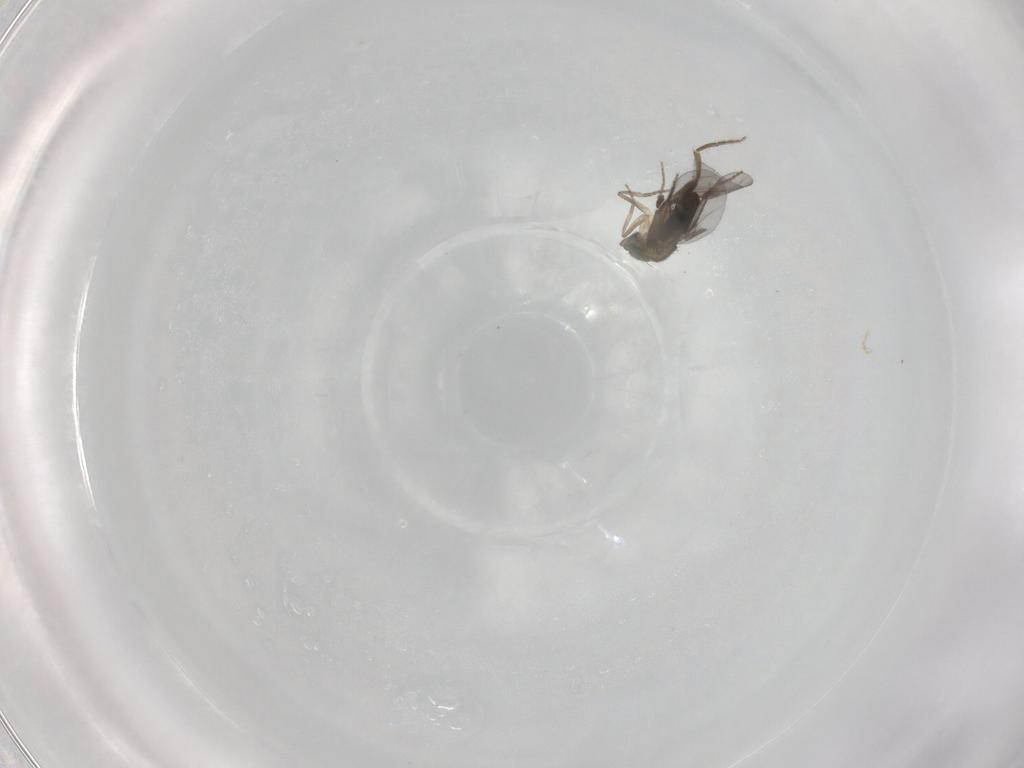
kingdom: Animalia
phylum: Arthropoda
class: Insecta
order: Diptera
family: Phoridae
